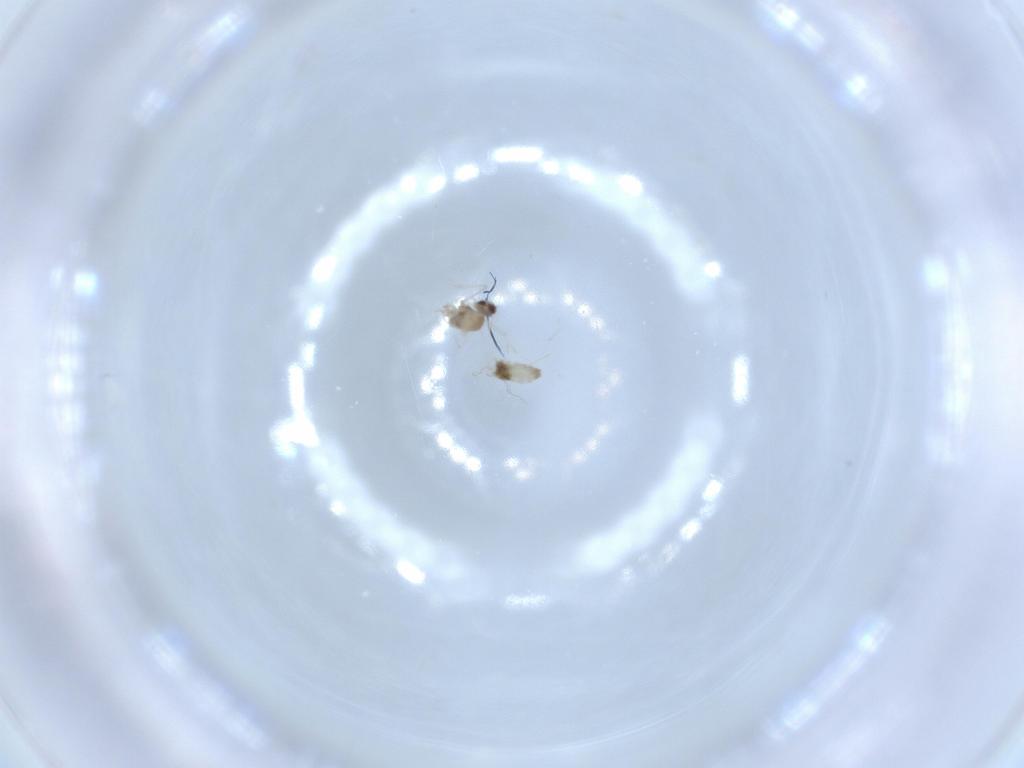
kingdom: Animalia
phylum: Arthropoda
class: Insecta
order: Diptera
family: Cecidomyiidae
